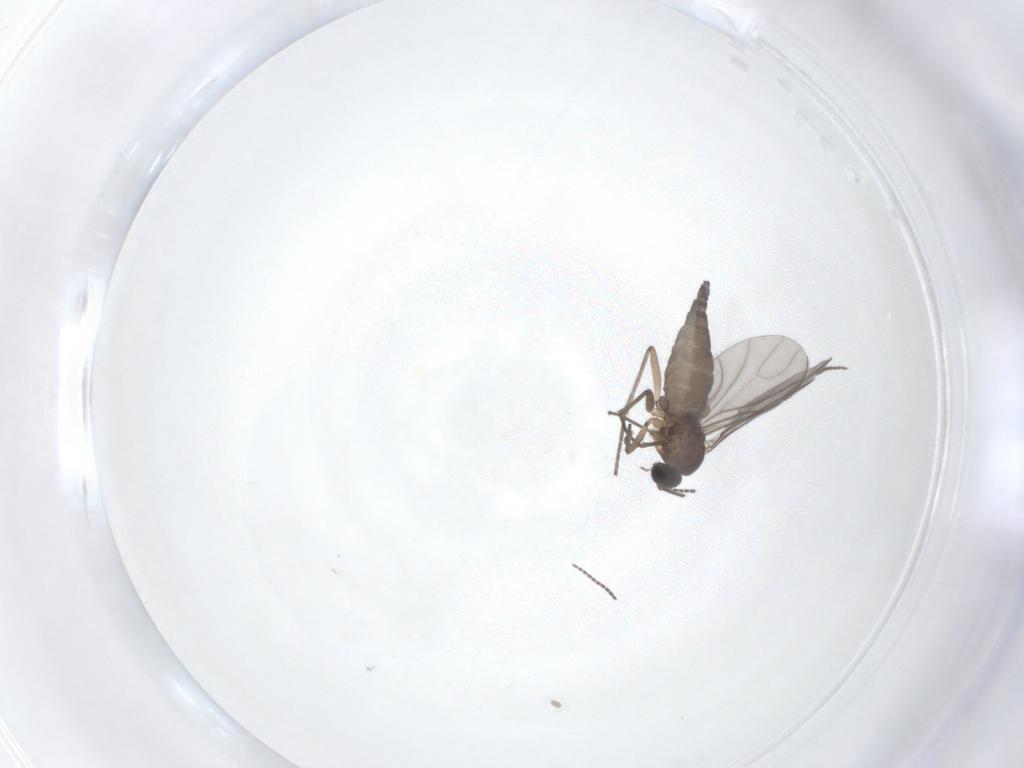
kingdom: Animalia
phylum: Arthropoda
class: Insecta
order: Diptera
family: Sciaridae
